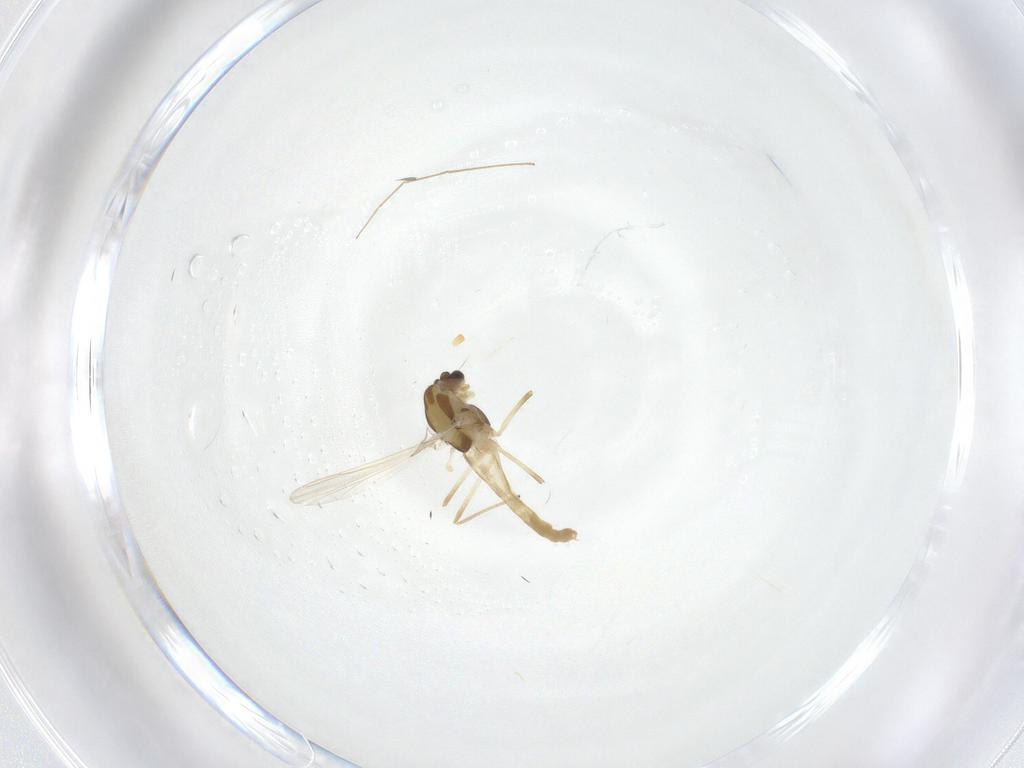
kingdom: Animalia
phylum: Arthropoda
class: Insecta
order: Diptera
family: Chironomidae
